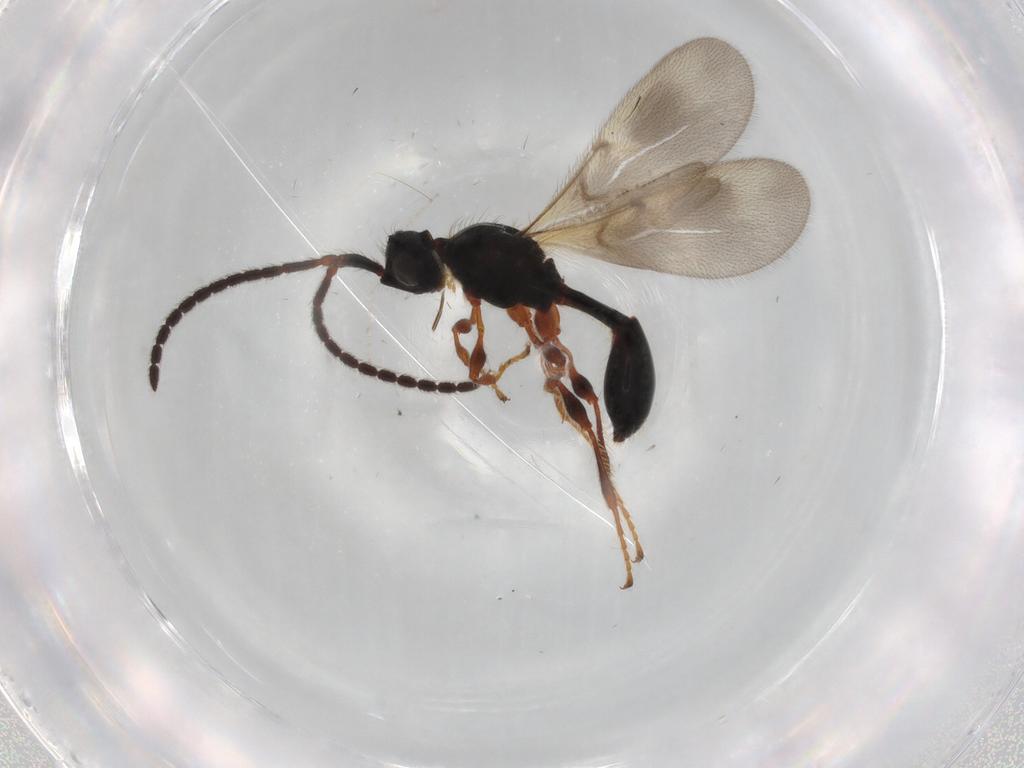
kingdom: Animalia
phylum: Arthropoda
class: Insecta
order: Hymenoptera
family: Diapriidae
